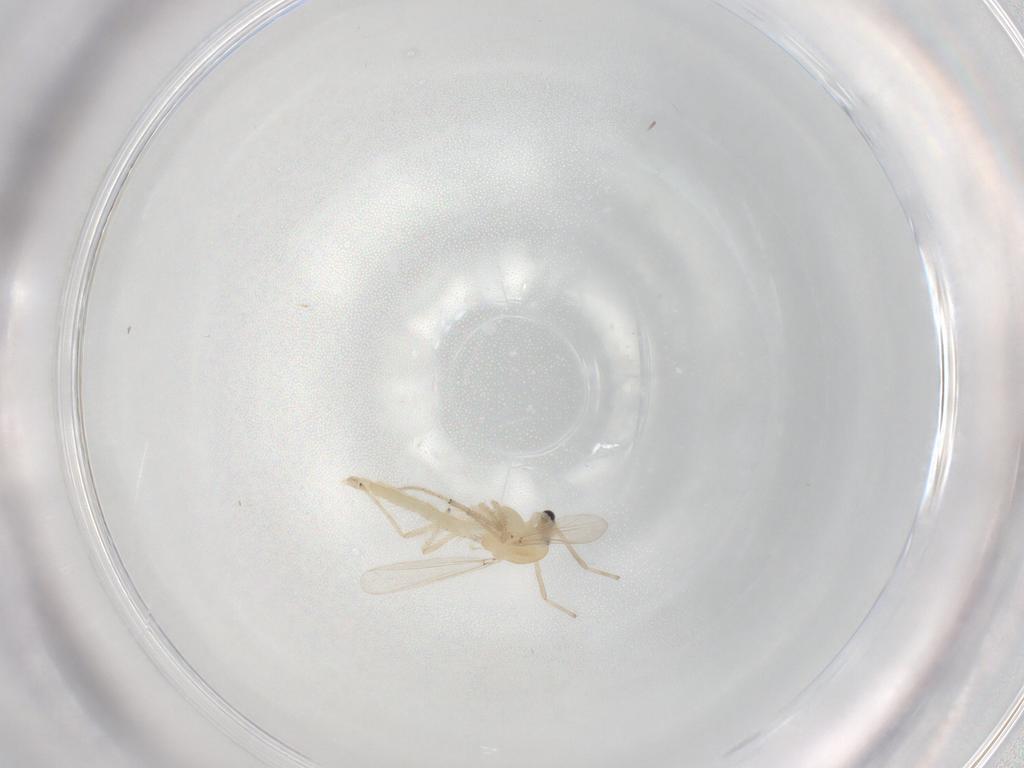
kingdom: Animalia
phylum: Arthropoda
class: Insecta
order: Diptera
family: Chironomidae
